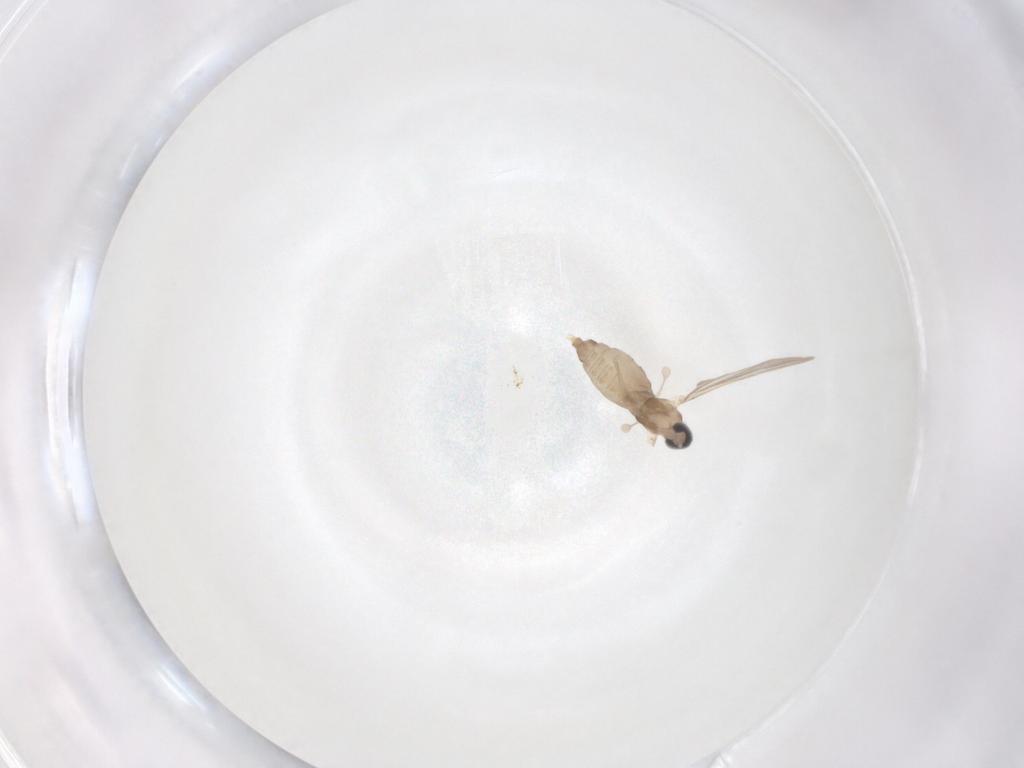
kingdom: Animalia
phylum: Arthropoda
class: Insecta
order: Diptera
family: Cecidomyiidae
